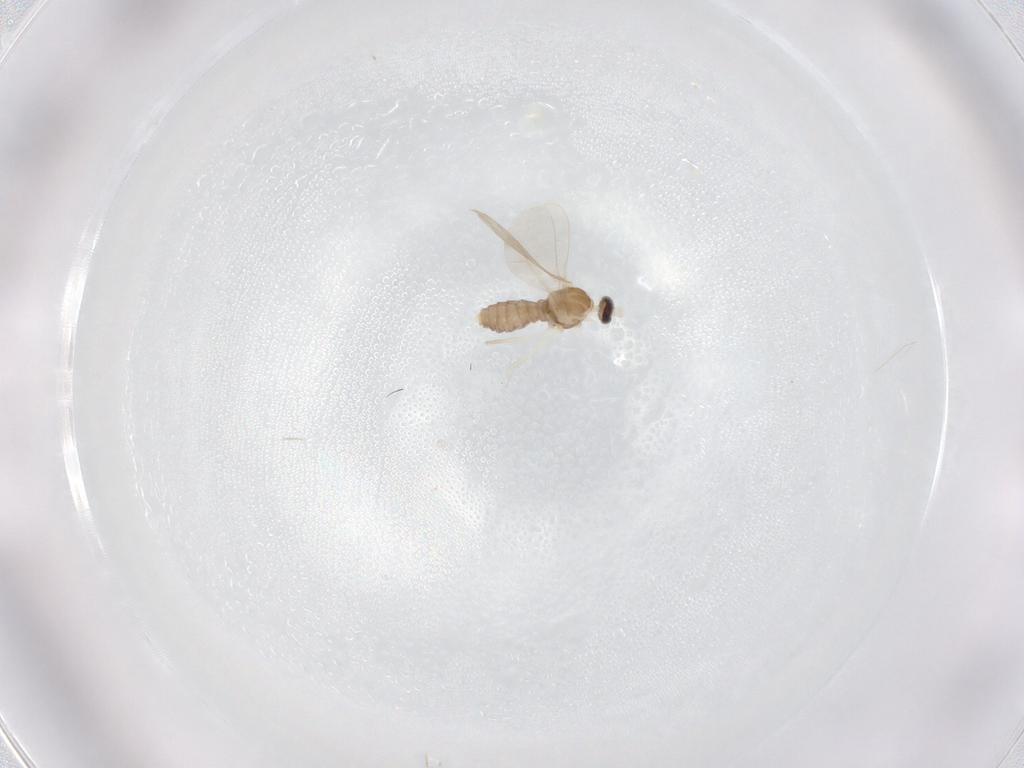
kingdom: Animalia
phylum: Arthropoda
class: Insecta
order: Diptera
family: Cecidomyiidae
